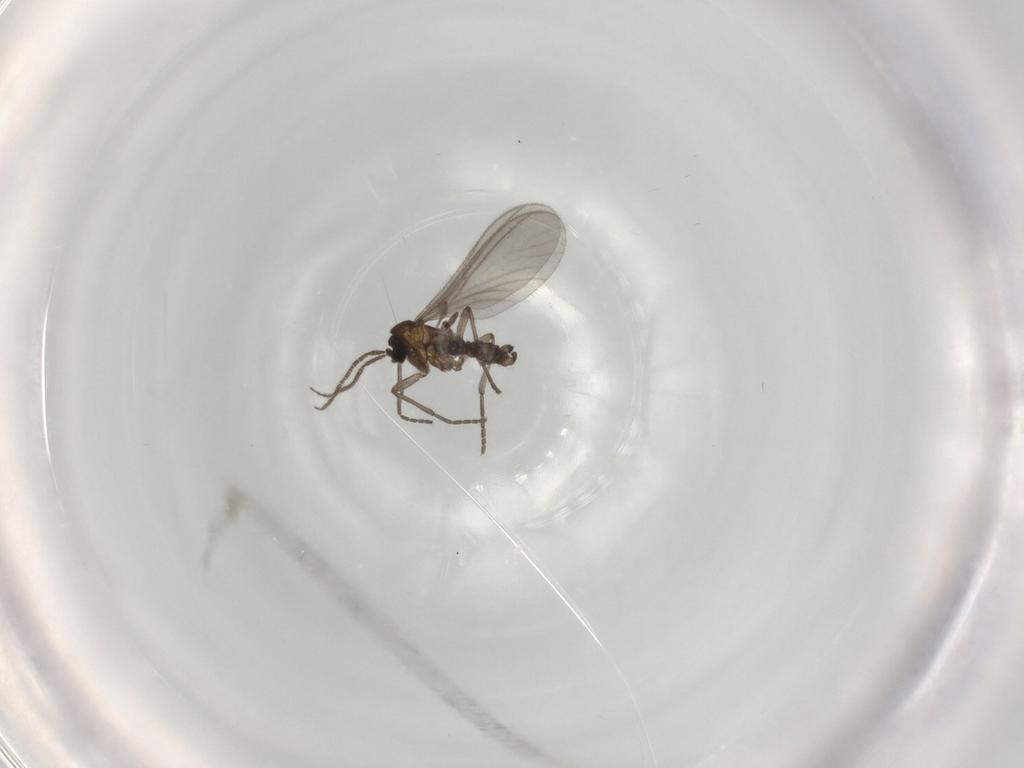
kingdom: Animalia
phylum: Arthropoda
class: Insecta
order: Diptera
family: Sciaridae
